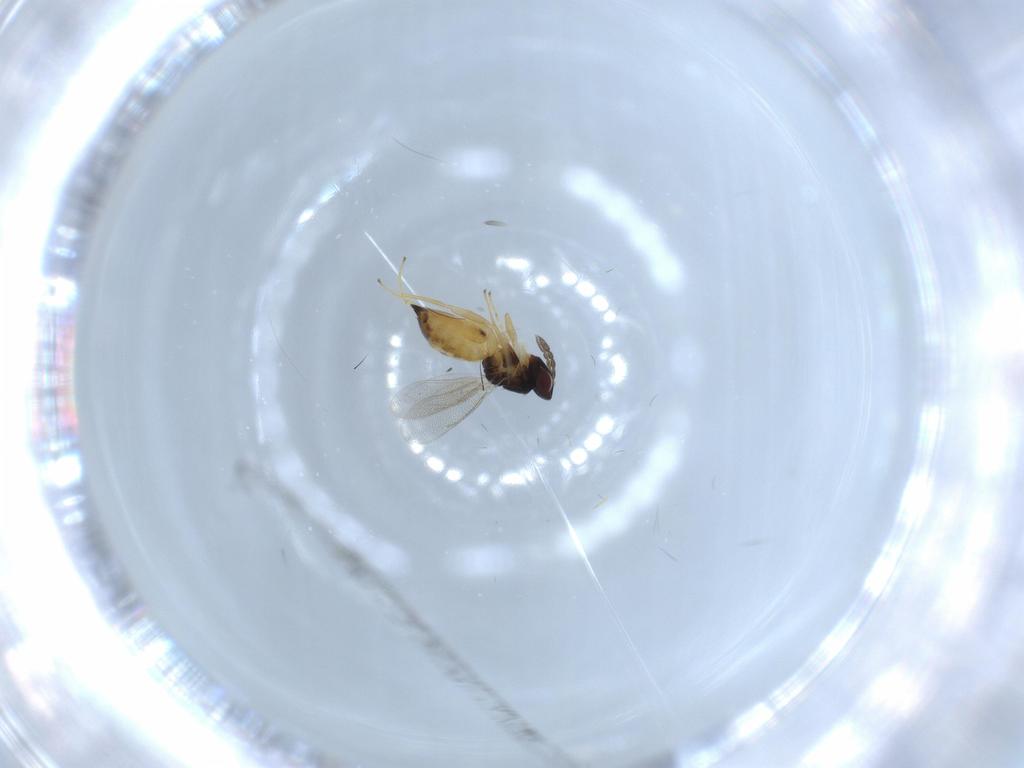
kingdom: Animalia
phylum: Arthropoda
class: Insecta
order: Hymenoptera
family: Eulophidae
